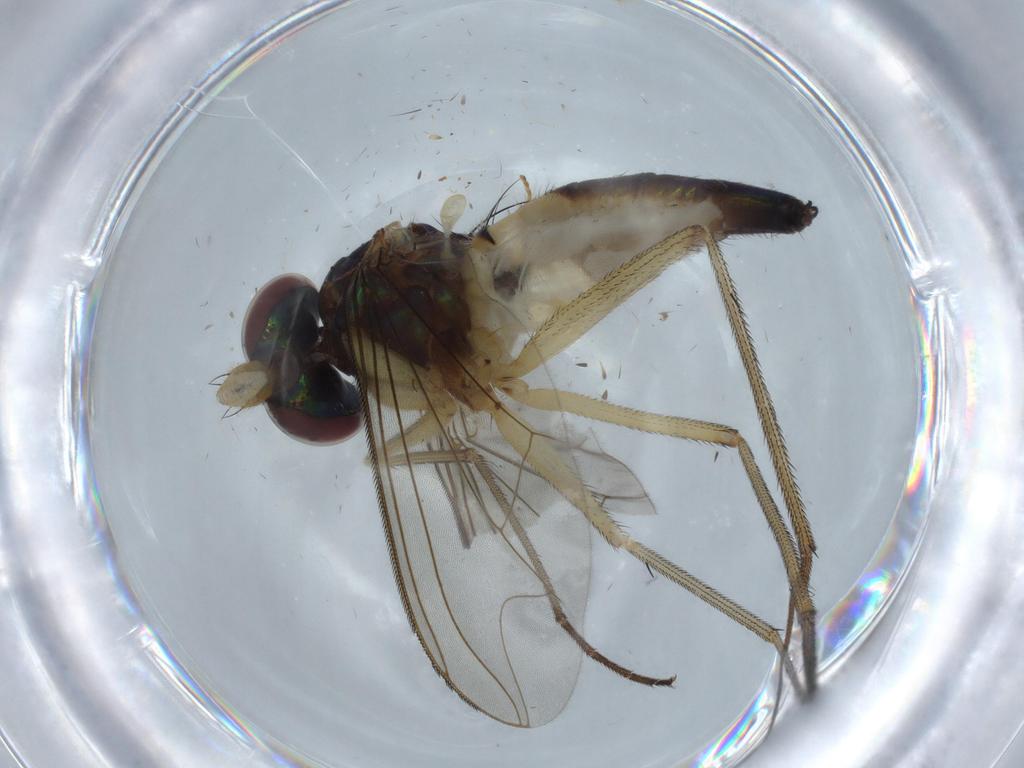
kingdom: Animalia
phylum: Arthropoda
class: Insecta
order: Diptera
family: Dolichopodidae
